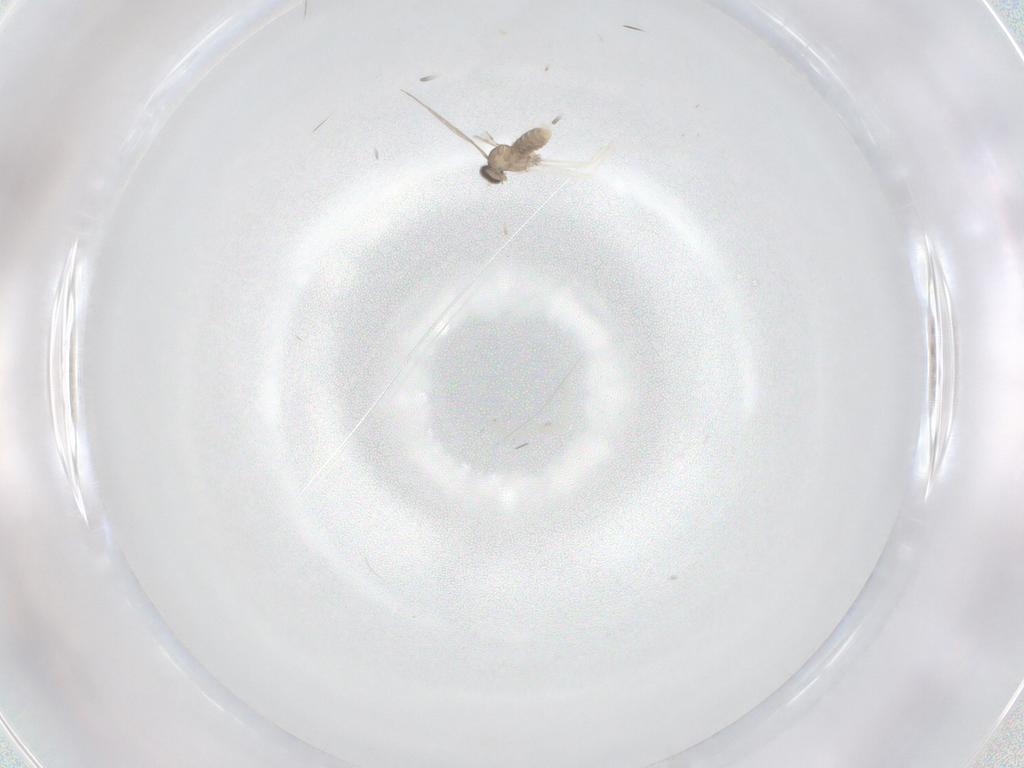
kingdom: Animalia
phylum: Arthropoda
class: Insecta
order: Diptera
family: Cecidomyiidae
